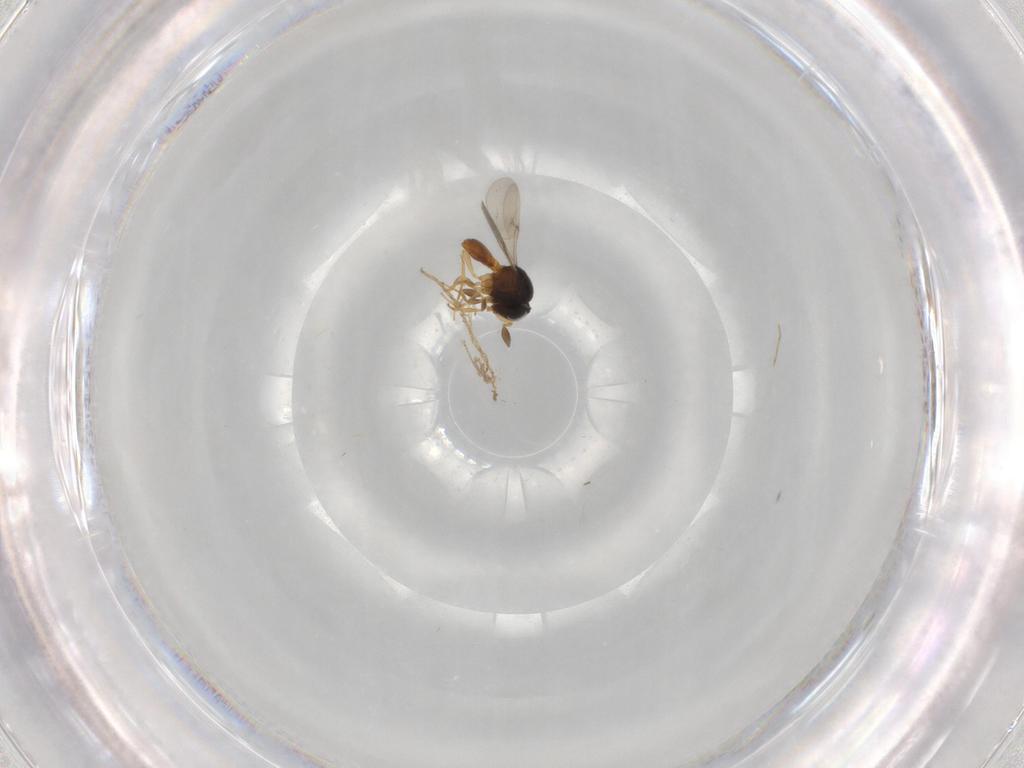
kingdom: Animalia
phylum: Arthropoda
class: Insecta
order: Hymenoptera
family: Scelionidae
